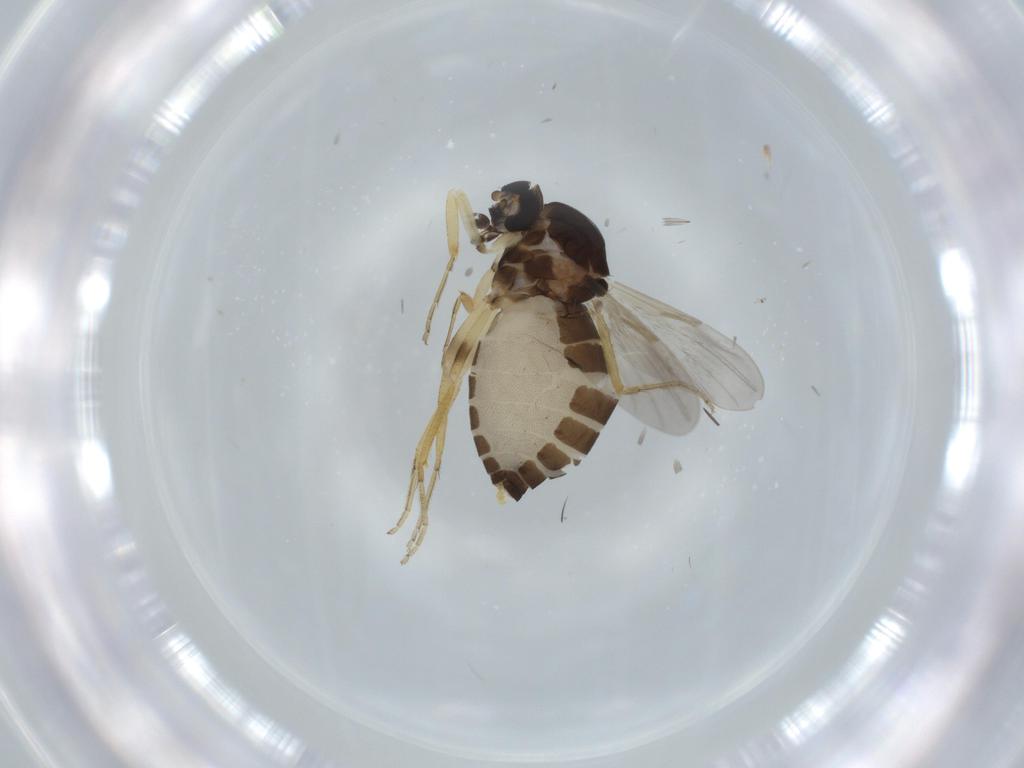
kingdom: Animalia
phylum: Arthropoda
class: Insecta
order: Diptera
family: Ceratopogonidae
